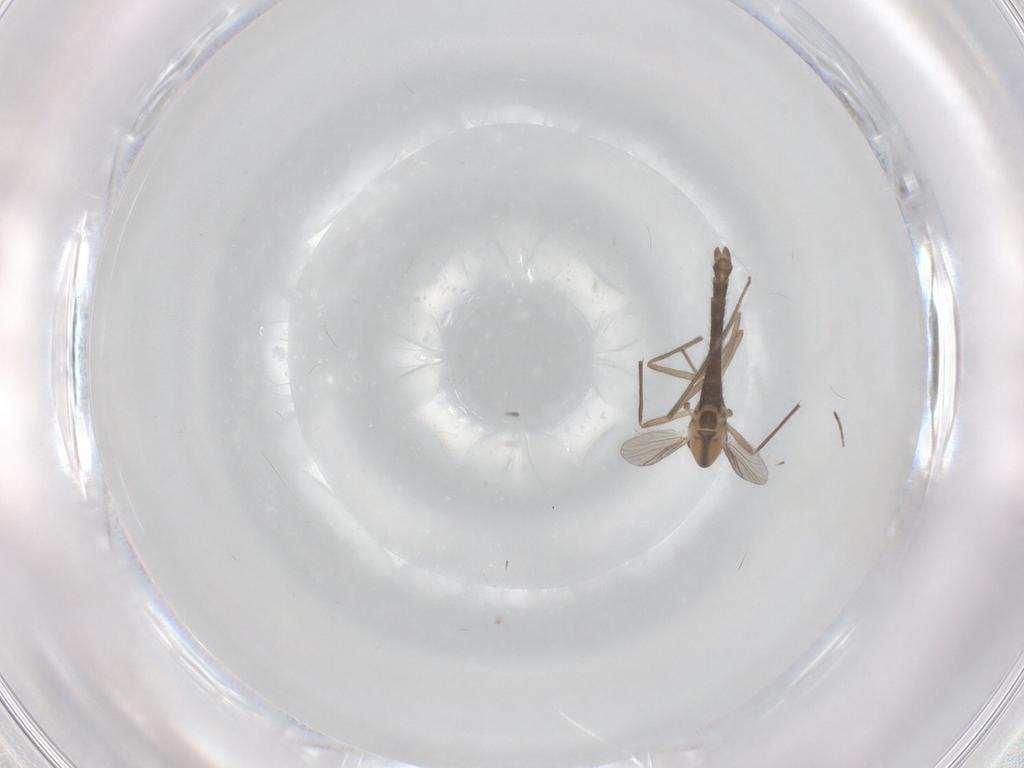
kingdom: Animalia
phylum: Arthropoda
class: Insecta
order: Diptera
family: Chironomidae
